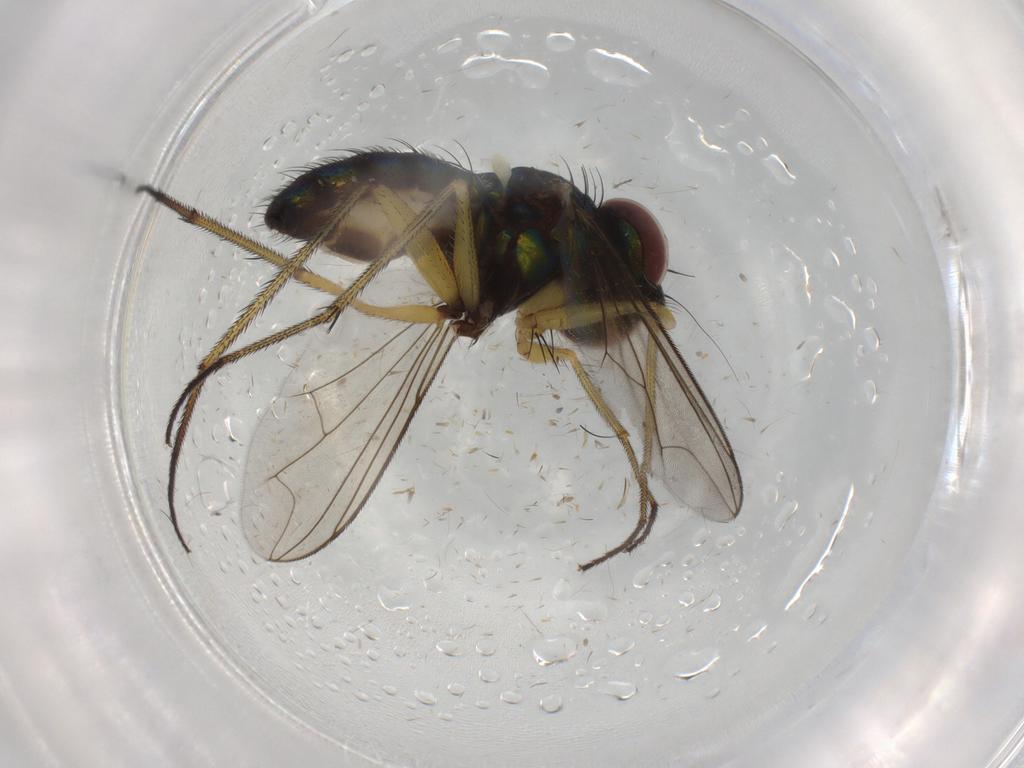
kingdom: Animalia
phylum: Arthropoda
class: Insecta
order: Diptera
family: Dolichopodidae
